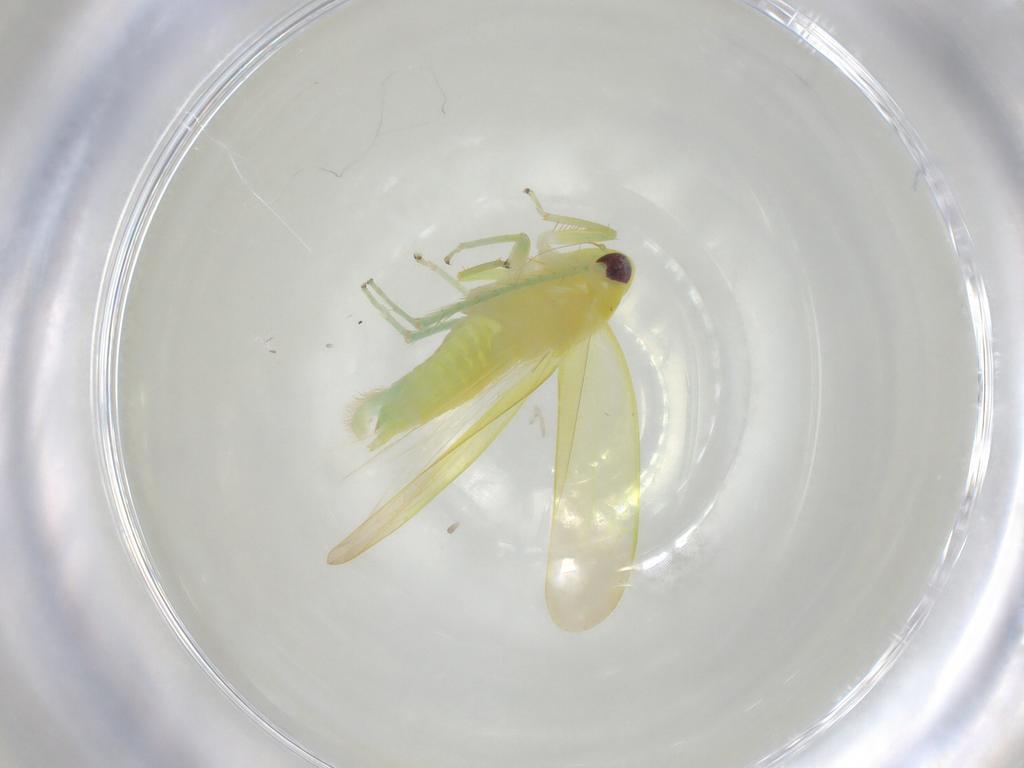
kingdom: Animalia
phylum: Arthropoda
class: Insecta
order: Hemiptera
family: Cicadellidae
